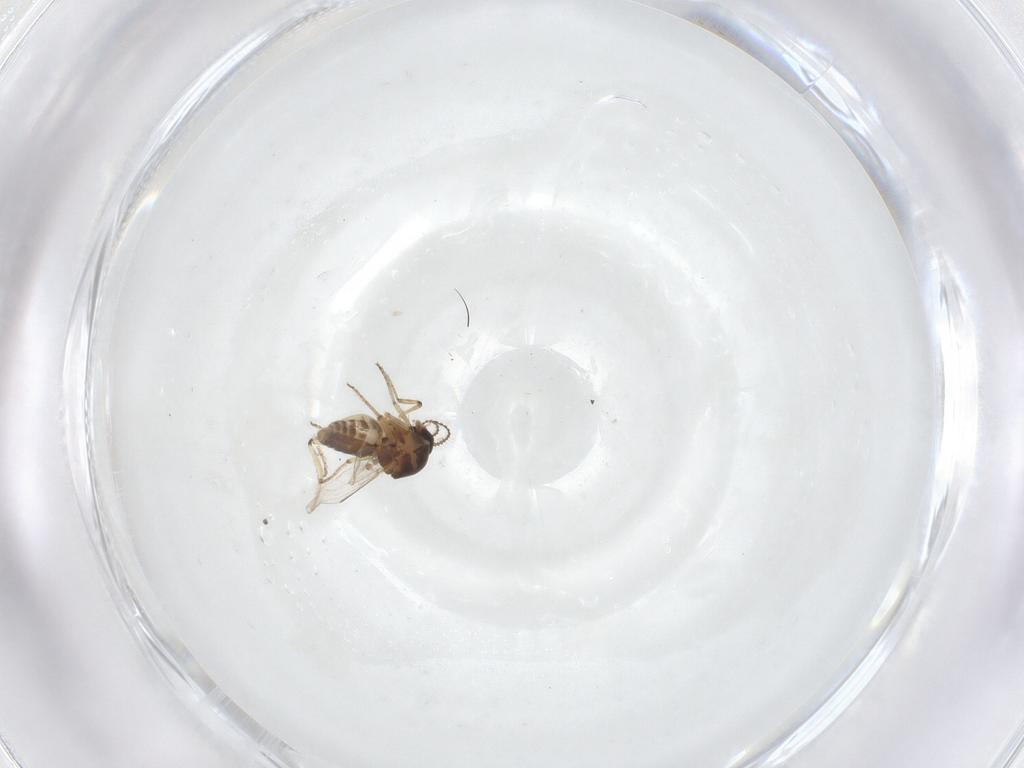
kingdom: Animalia
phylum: Arthropoda
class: Insecta
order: Diptera
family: Ceratopogonidae
